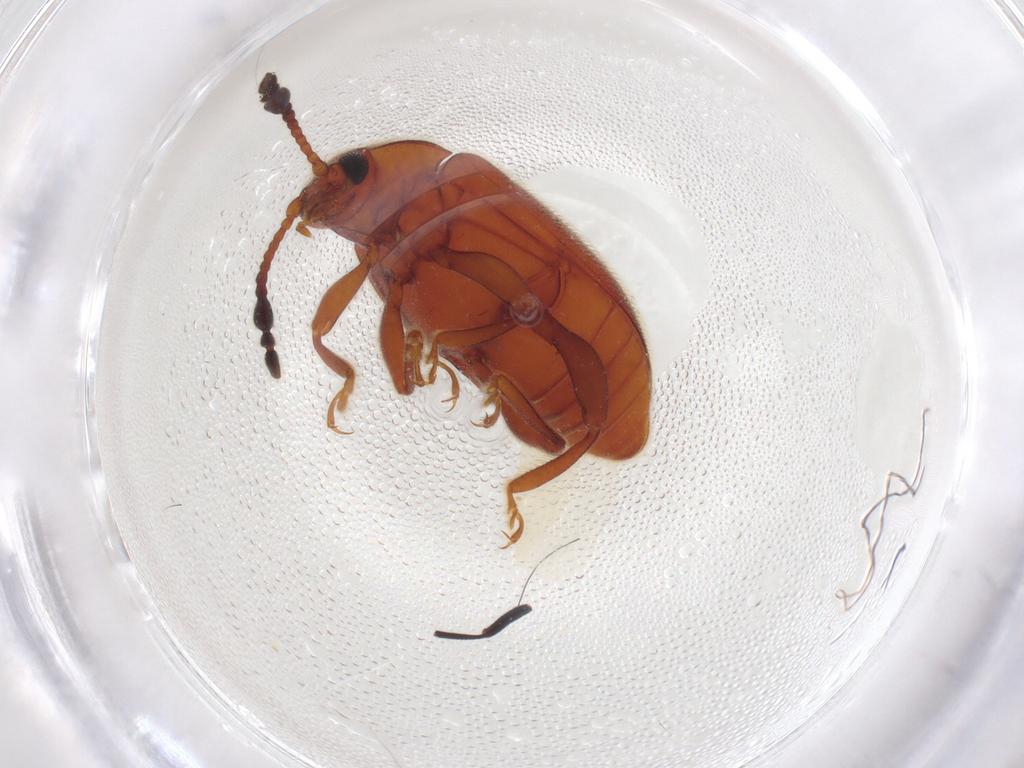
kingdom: Animalia
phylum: Arthropoda
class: Insecta
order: Coleoptera
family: Endomychidae
